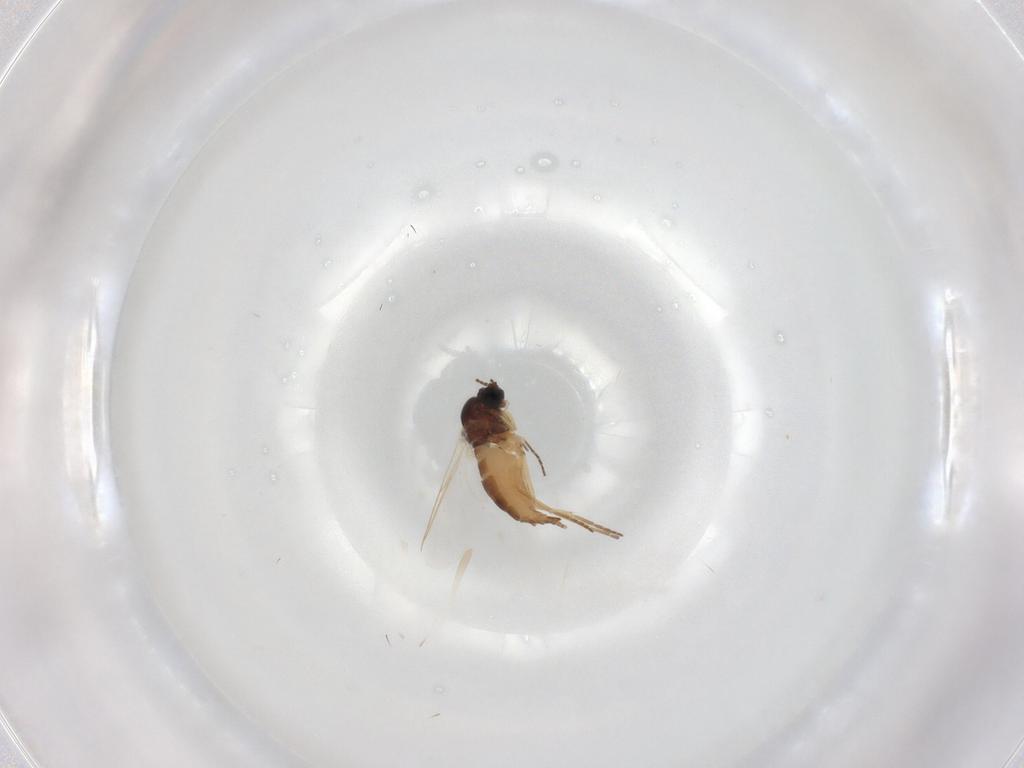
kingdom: Animalia
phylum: Arthropoda
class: Insecta
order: Diptera
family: Sciaridae
